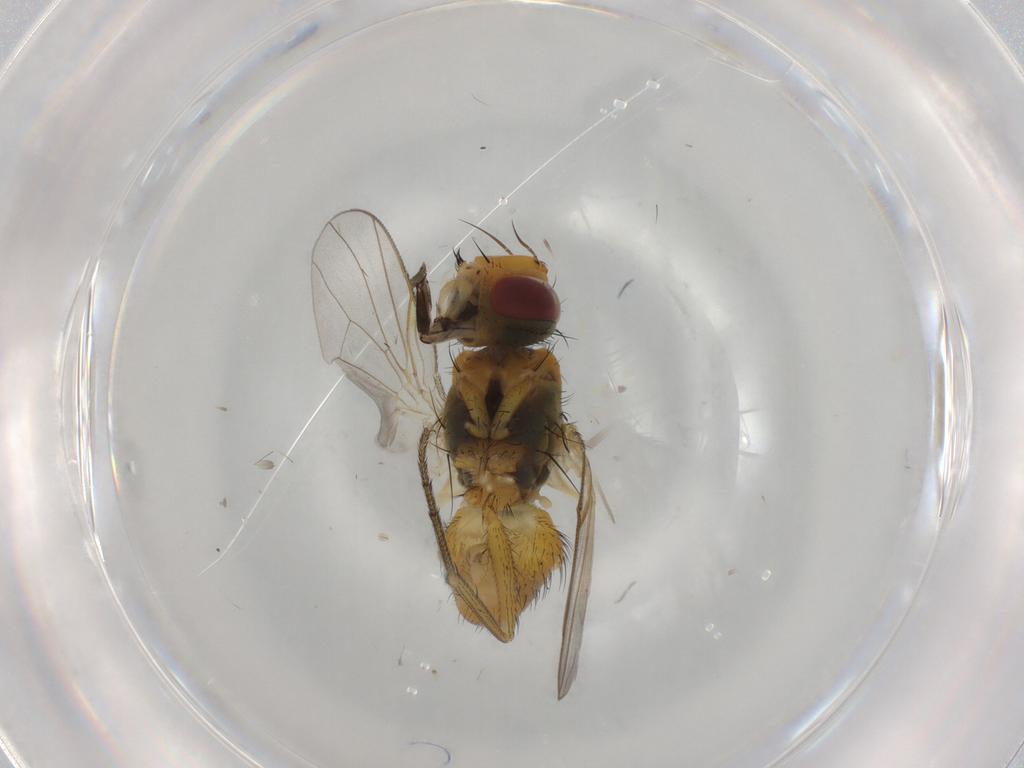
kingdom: Animalia
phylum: Arthropoda
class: Insecta
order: Diptera
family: Muscidae
